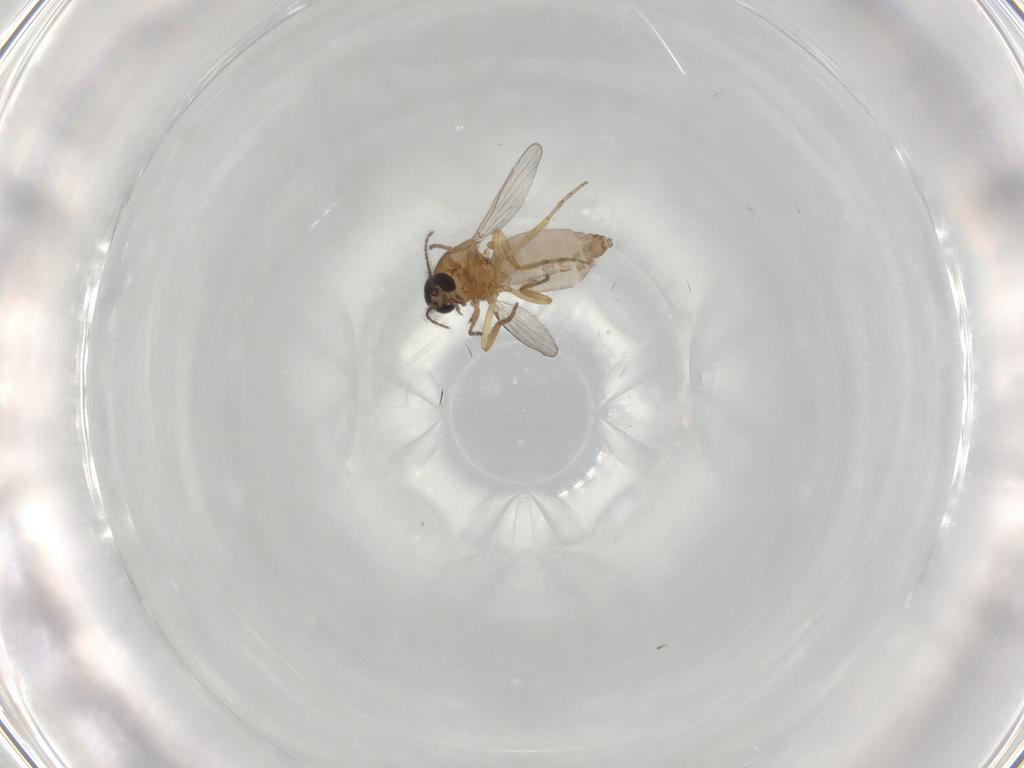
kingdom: Animalia
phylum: Arthropoda
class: Insecta
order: Diptera
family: Ceratopogonidae
